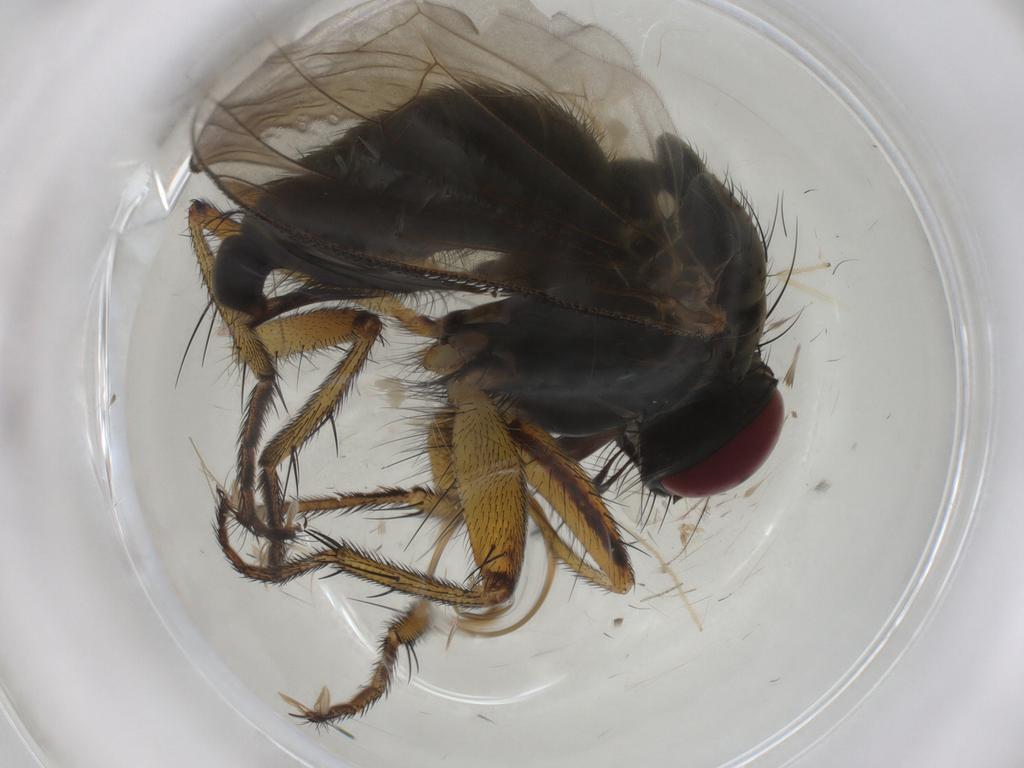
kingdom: Animalia
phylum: Arthropoda
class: Insecta
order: Diptera
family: Muscidae
